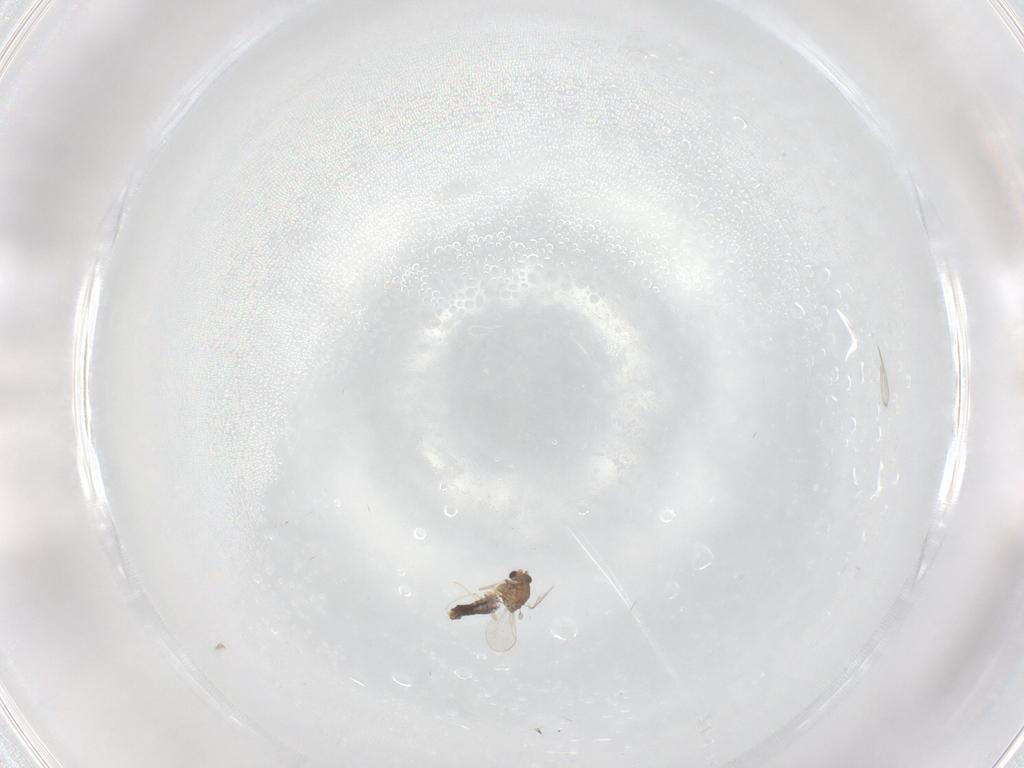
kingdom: Animalia
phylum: Arthropoda
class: Insecta
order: Diptera
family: Chironomidae
